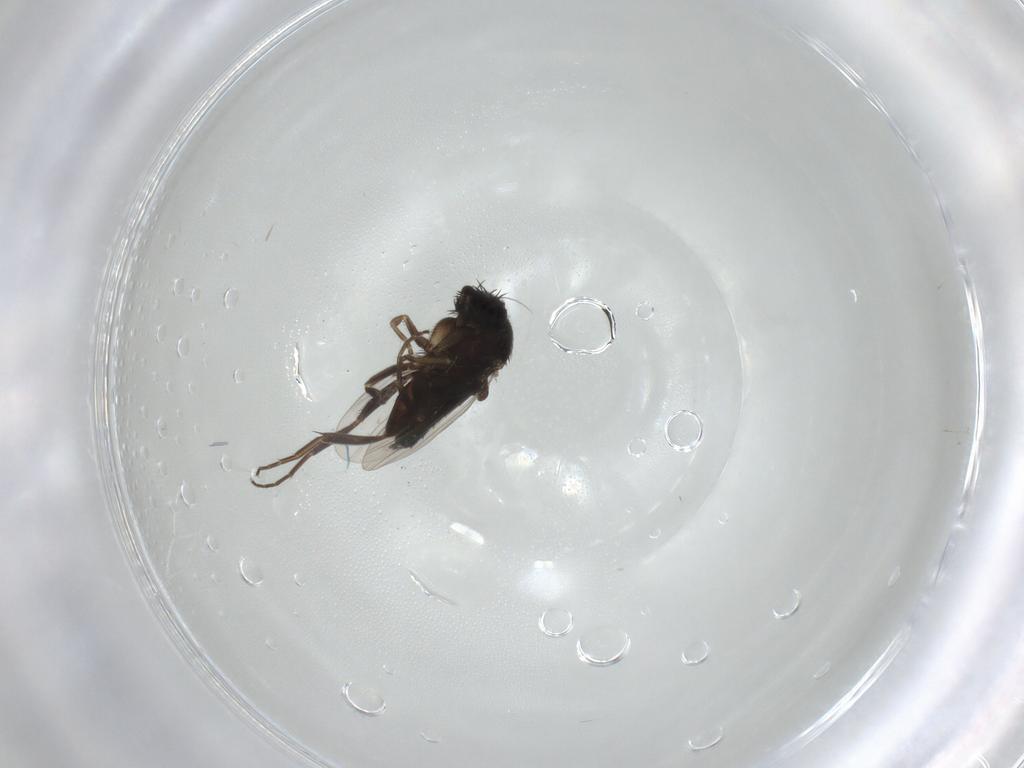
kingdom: Animalia
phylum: Arthropoda
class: Insecta
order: Diptera
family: Phoridae
